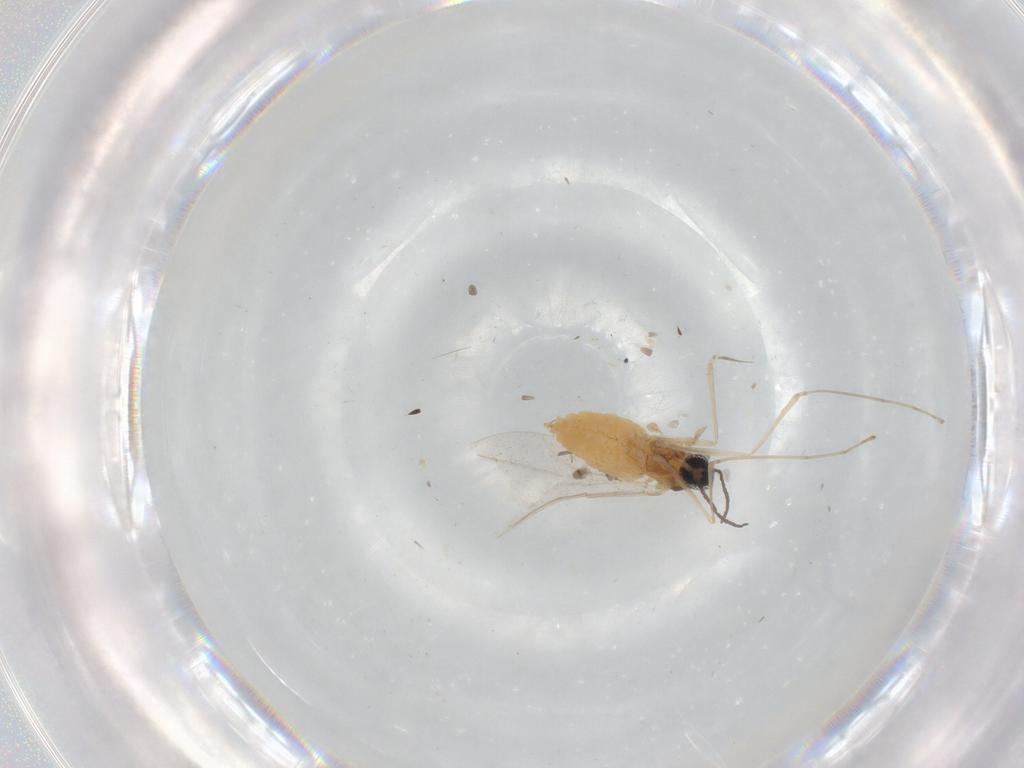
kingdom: Animalia
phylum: Arthropoda
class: Insecta
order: Diptera
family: Cecidomyiidae
